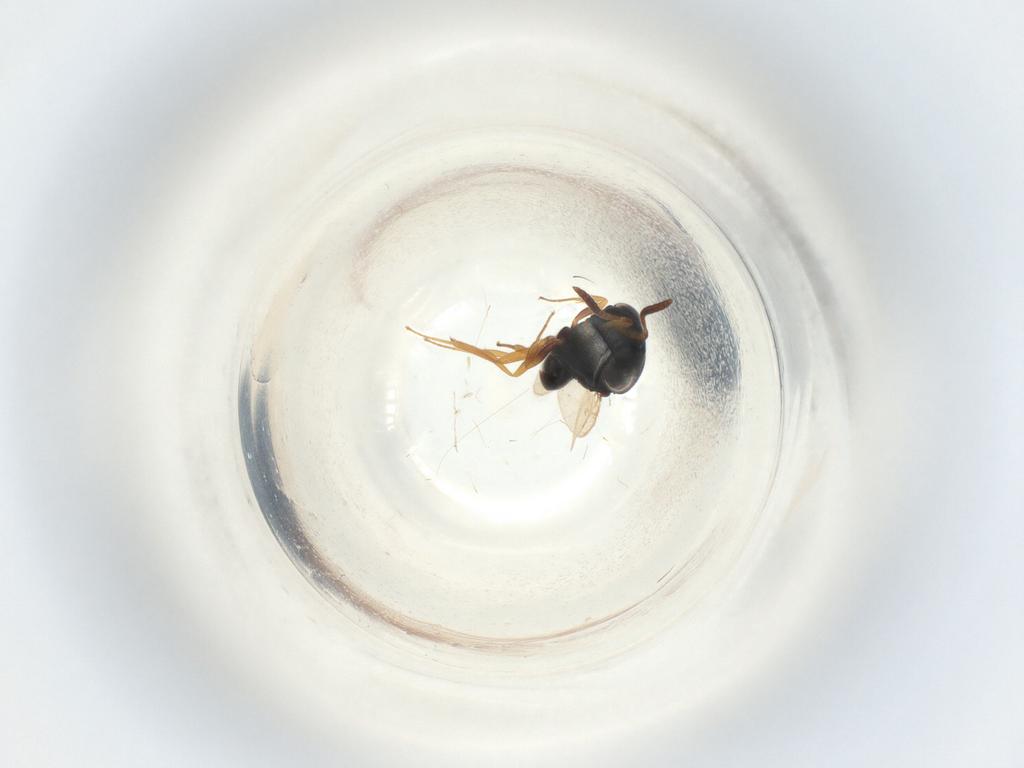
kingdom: Animalia
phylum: Arthropoda
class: Insecta
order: Hymenoptera
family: Scelionidae
